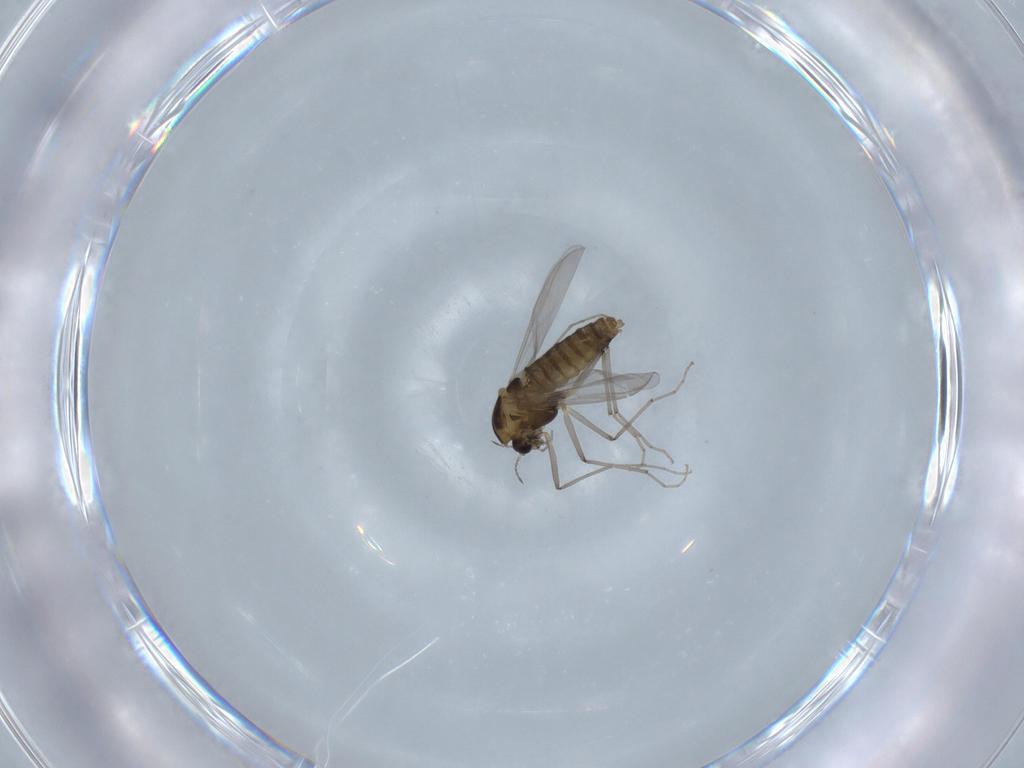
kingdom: Animalia
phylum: Arthropoda
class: Insecta
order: Diptera
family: Chironomidae
